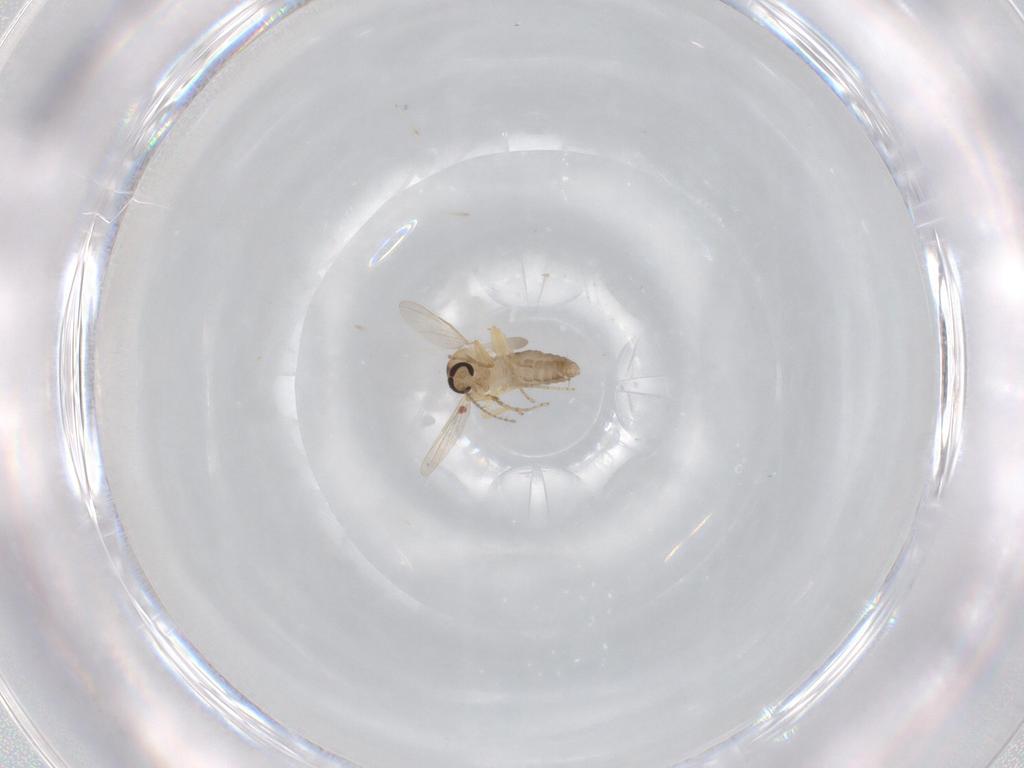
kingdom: Animalia
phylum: Arthropoda
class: Insecta
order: Diptera
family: Ceratopogonidae
